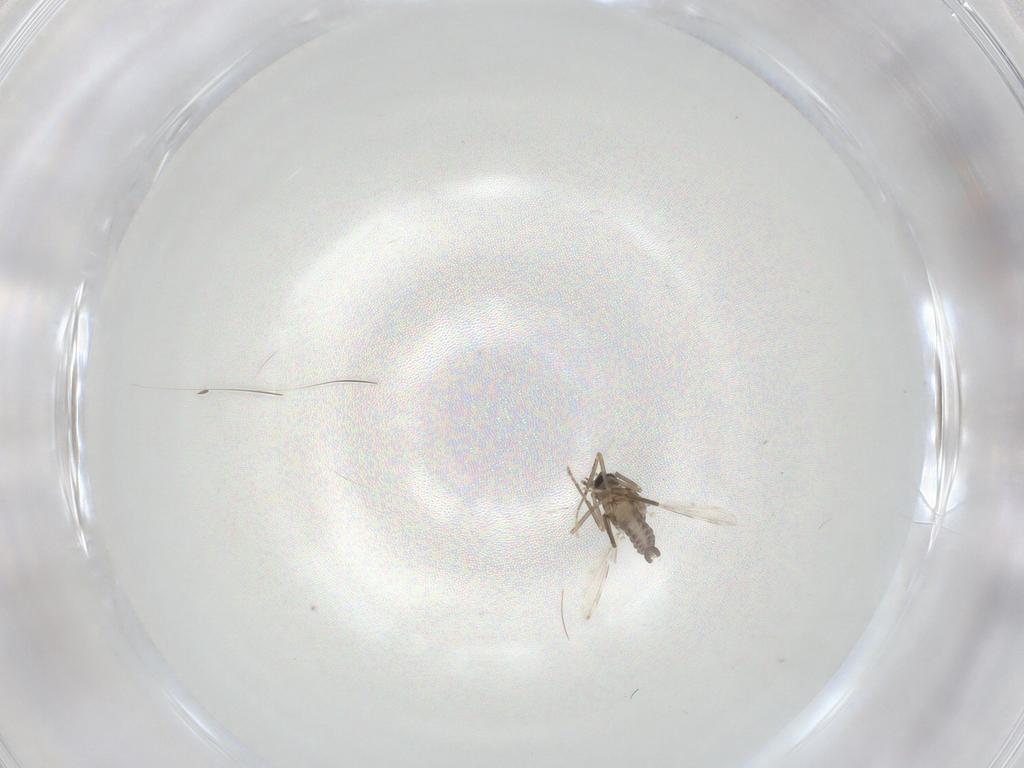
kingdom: Animalia
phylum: Arthropoda
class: Insecta
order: Diptera
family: Ceratopogonidae
